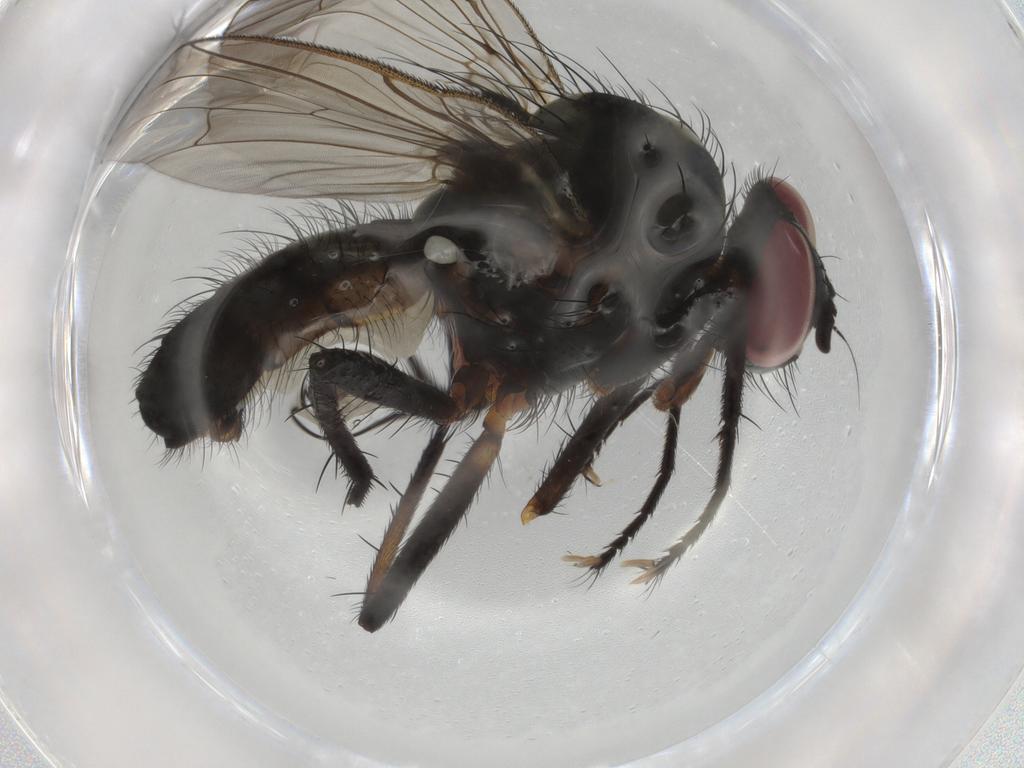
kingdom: Animalia
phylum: Arthropoda
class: Insecta
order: Diptera
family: Anthomyiidae
